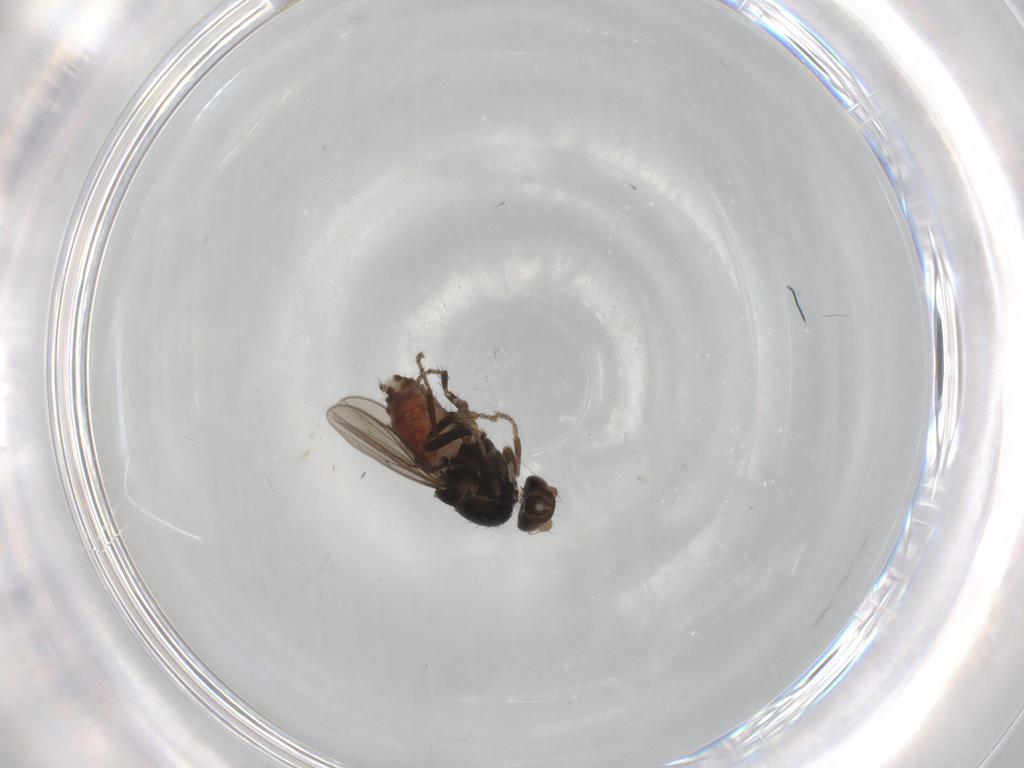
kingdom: Animalia
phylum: Arthropoda
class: Insecta
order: Diptera
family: Sphaeroceridae
